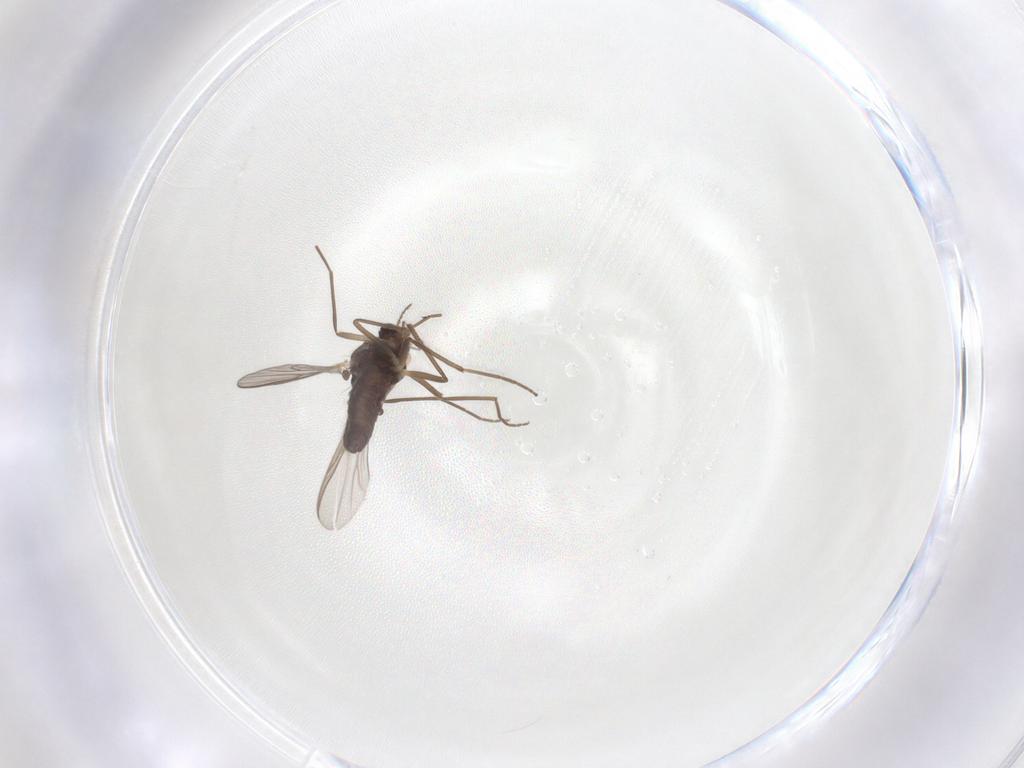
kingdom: Animalia
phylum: Arthropoda
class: Insecta
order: Diptera
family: Chironomidae
